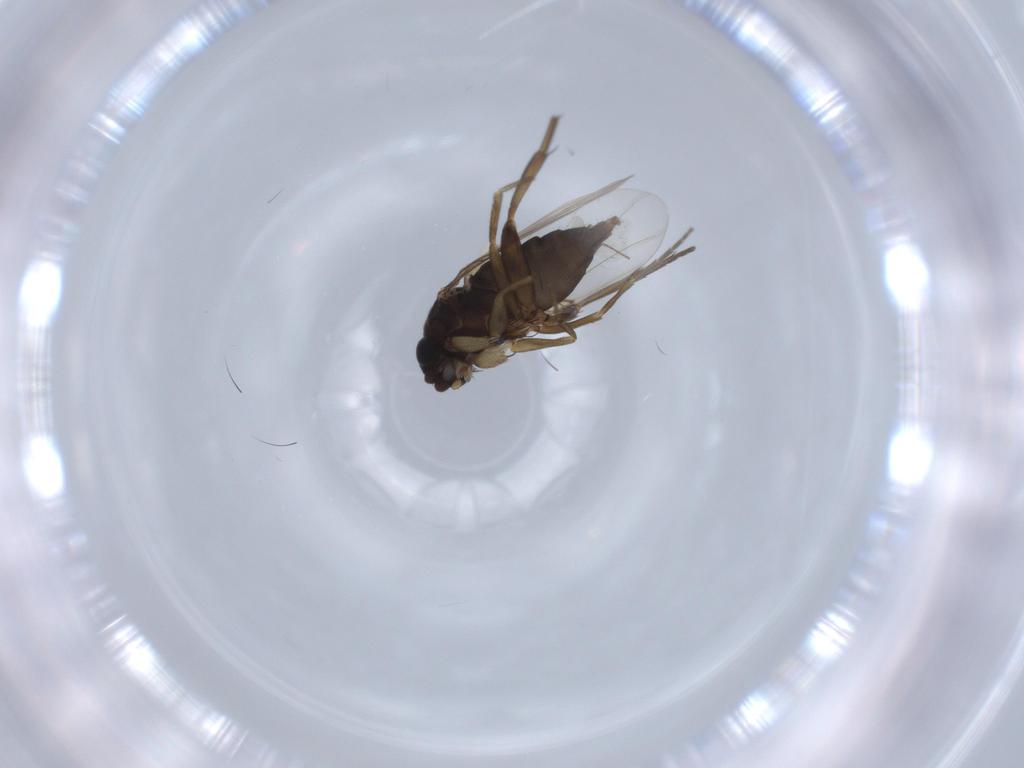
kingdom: Animalia
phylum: Arthropoda
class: Insecta
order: Diptera
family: Phoridae
